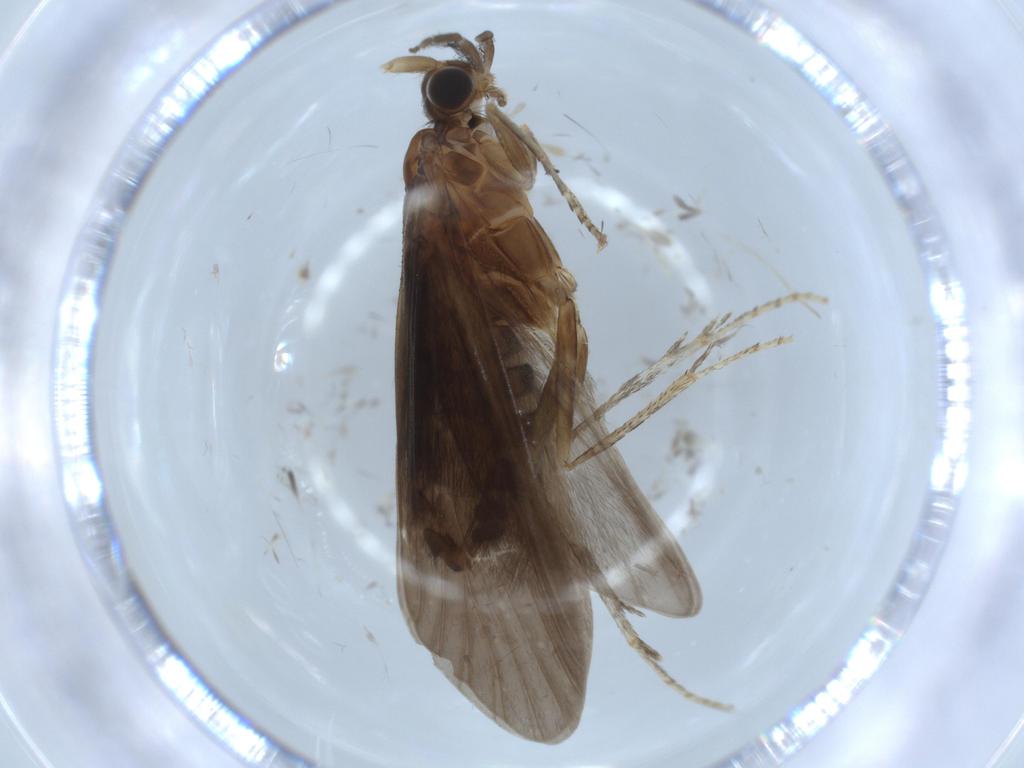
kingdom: Animalia
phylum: Arthropoda
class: Insecta
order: Trichoptera
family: Helicopsychidae
